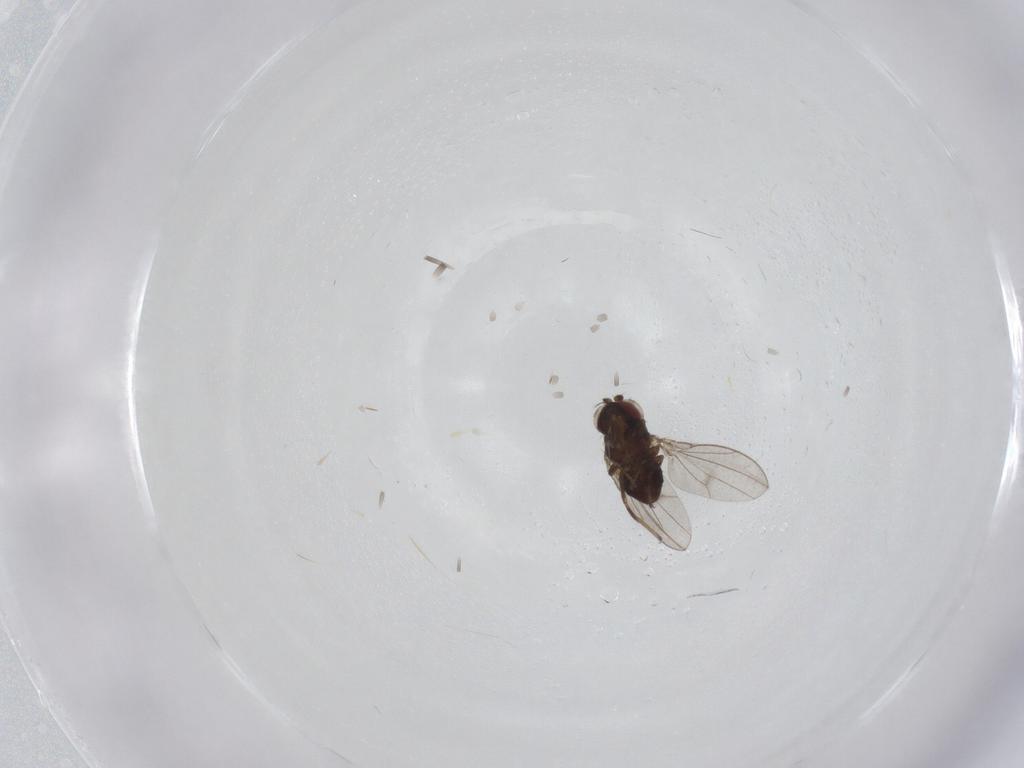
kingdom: Animalia
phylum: Arthropoda
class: Insecta
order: Diptera
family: Ephydridae
